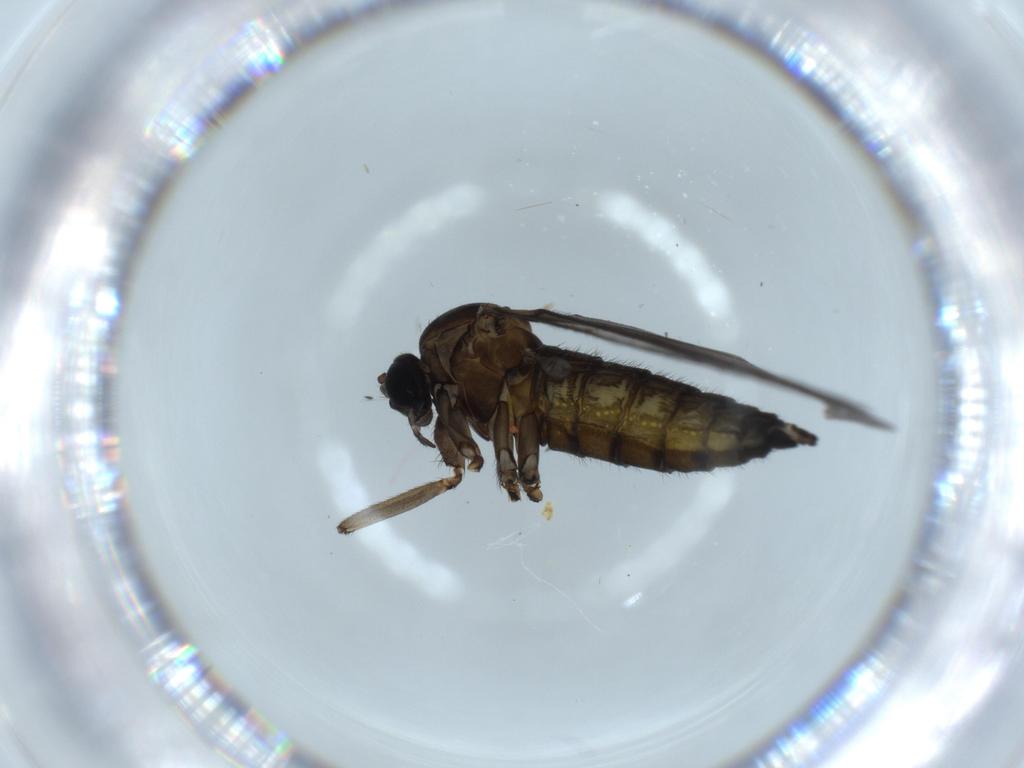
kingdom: Animalia
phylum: Arthropoda
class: Insecta
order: Diptera
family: Sciaridae
